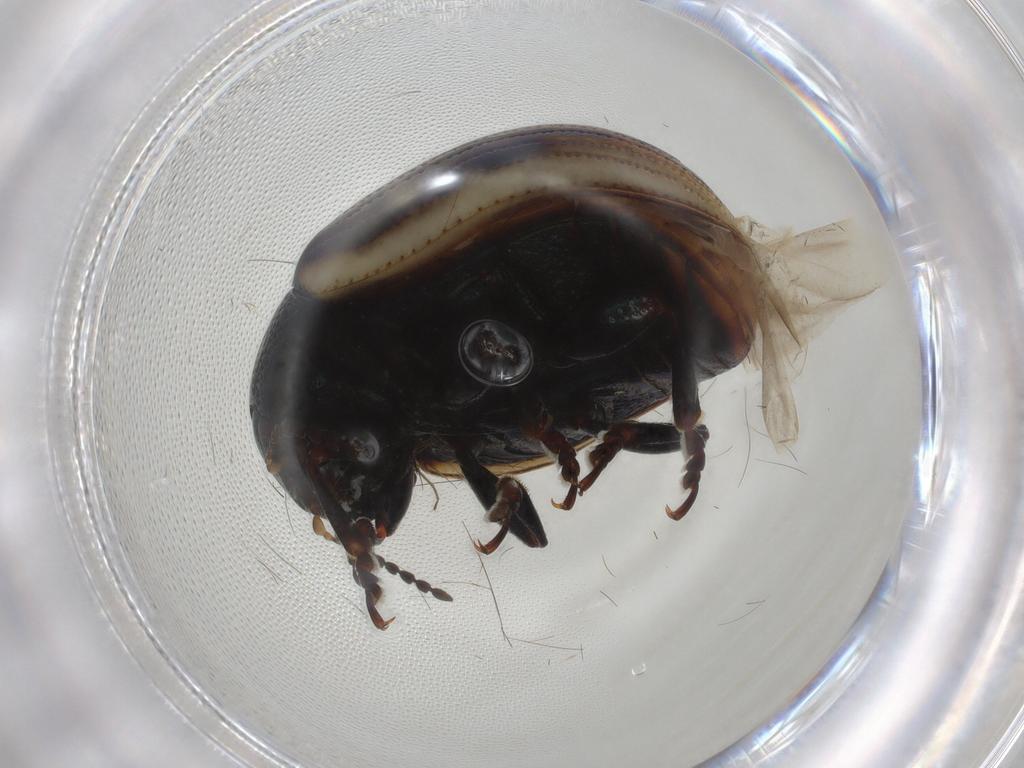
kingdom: Animalia
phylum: Arthropoda
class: Insecta
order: Coleoptera
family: Chrysomelidae
